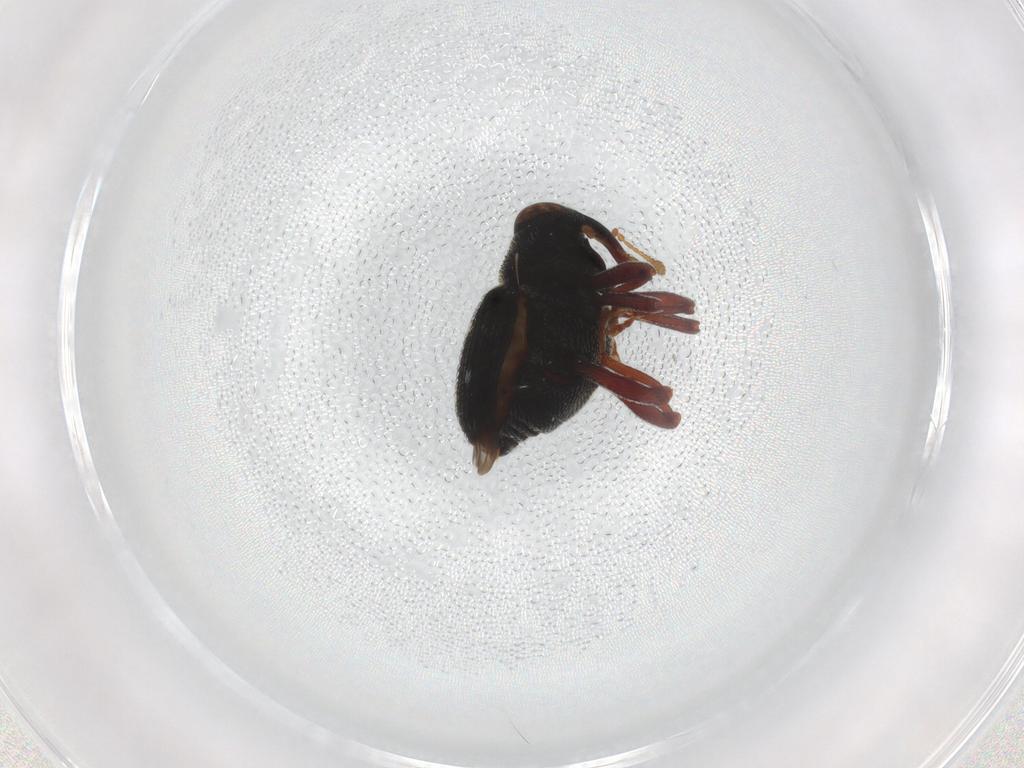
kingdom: Animalia
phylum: Arthropoda
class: Insecta
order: Coleoptera
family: Curculionidae
